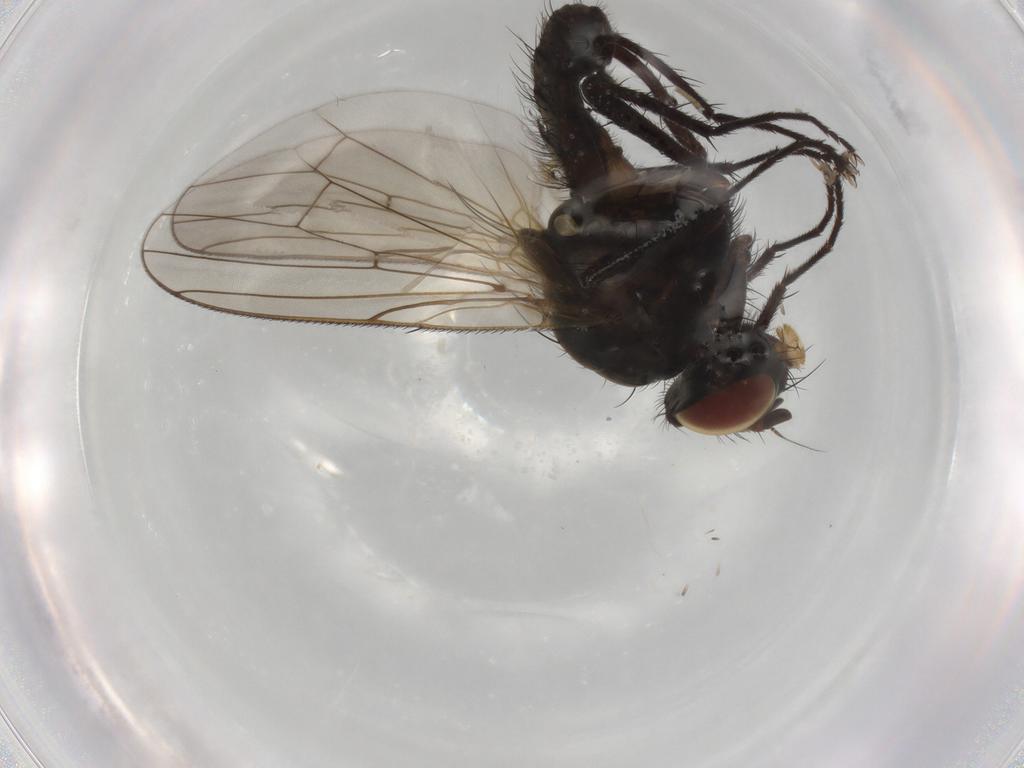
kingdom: Animalia
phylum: Arthropoda
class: Insecta
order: Diptera
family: Anthomyiidae
